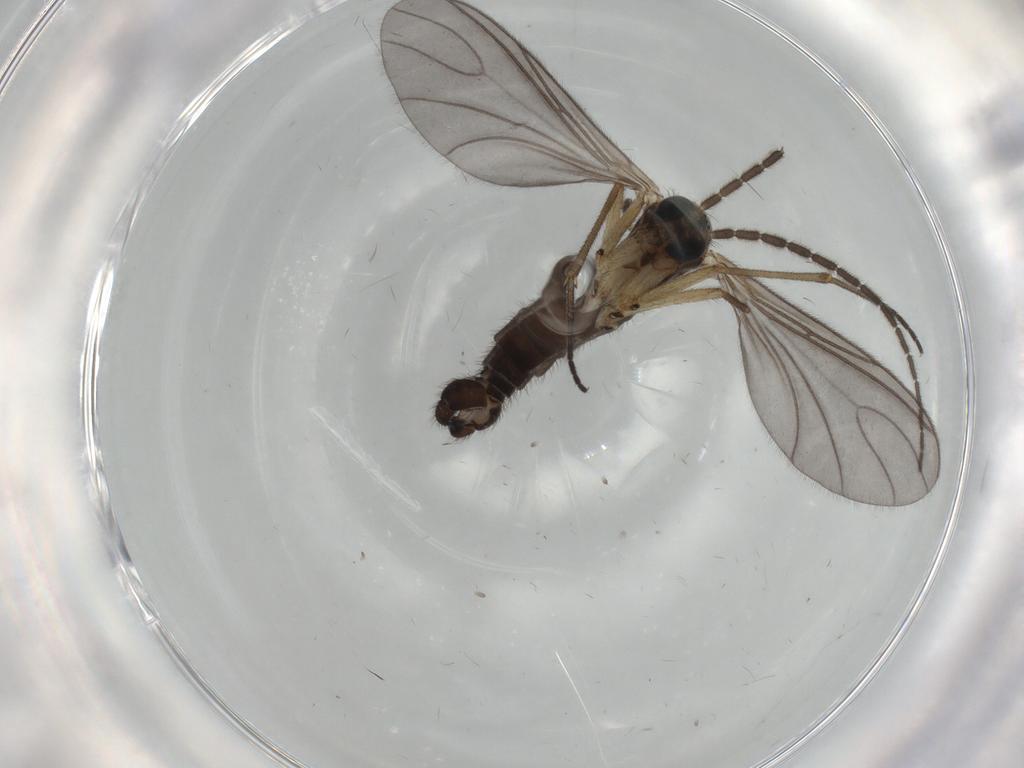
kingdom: Animalia
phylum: Arthropoda
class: Insecta
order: Diptera
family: Sciaridae
